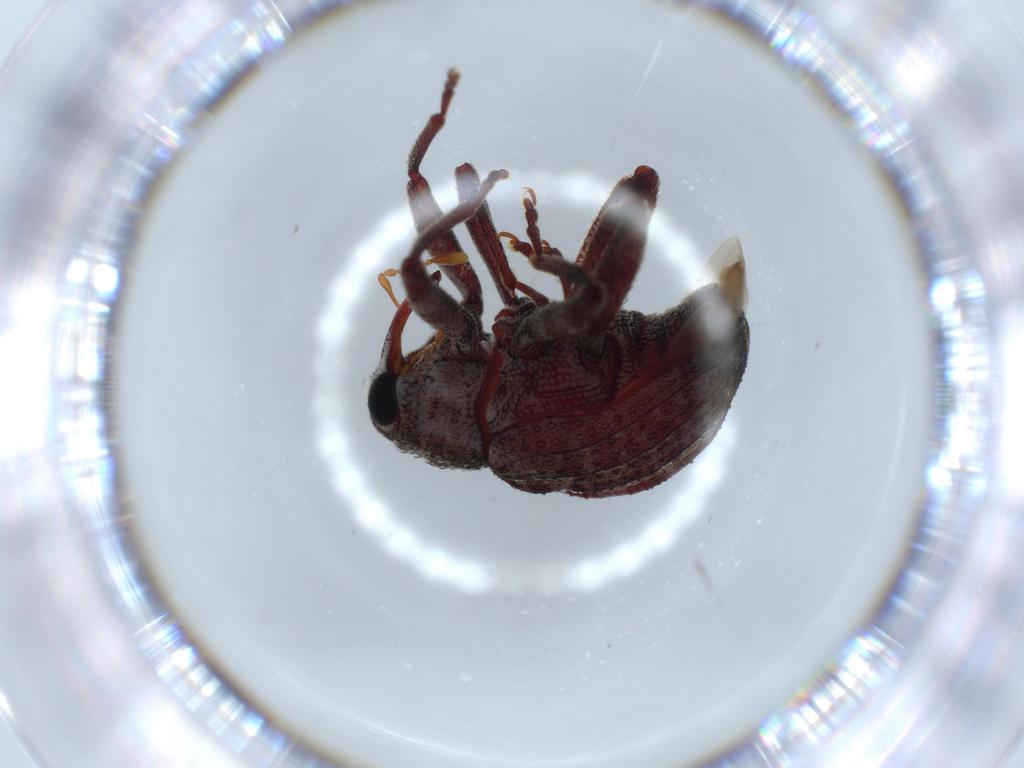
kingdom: Animalia
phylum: Arthropoda
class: Insecta
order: Coleoptera
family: Curculionidae
